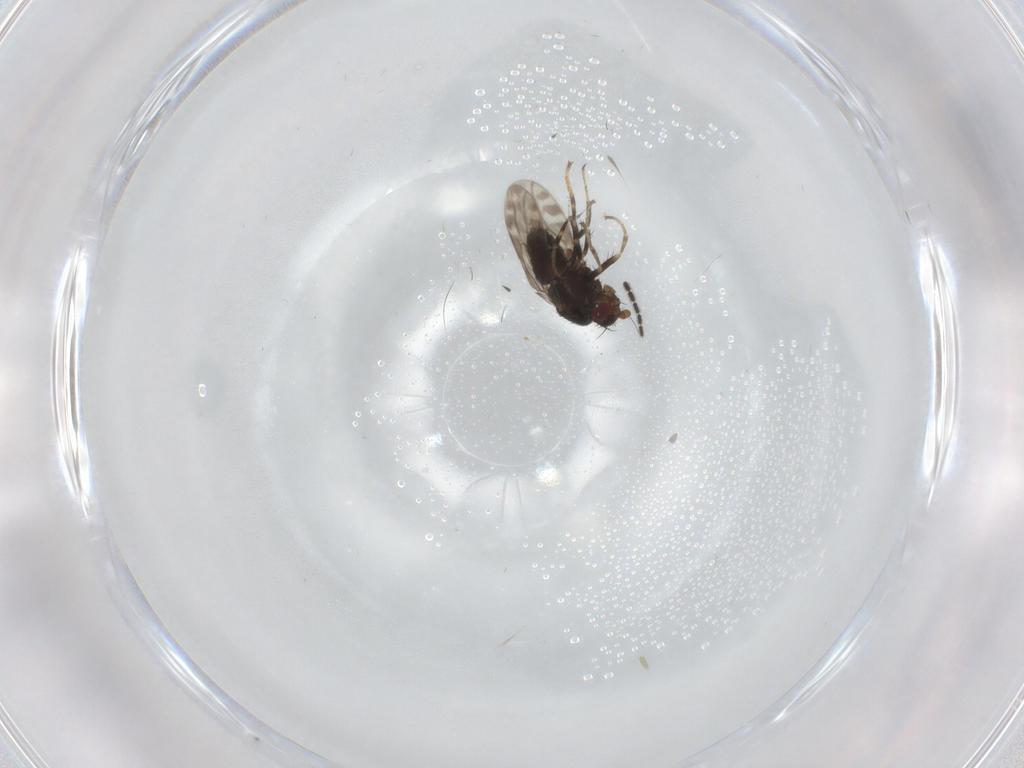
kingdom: Animalia
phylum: Arthropoda
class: Insecta
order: Diptera
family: Sphaeroceridae
